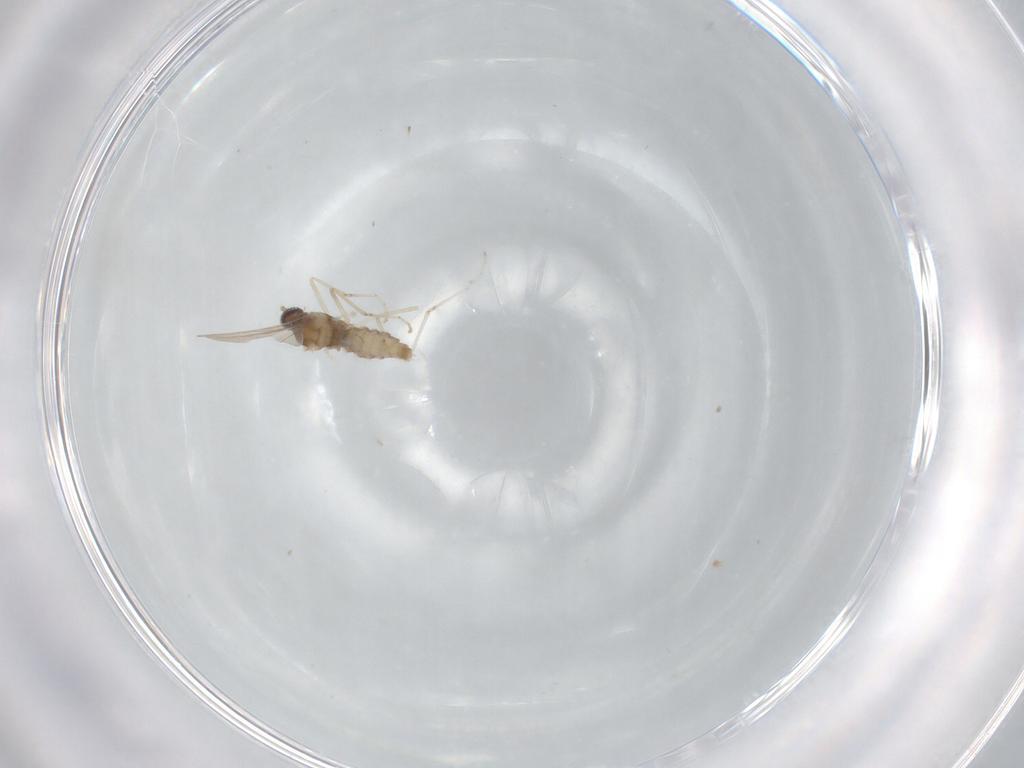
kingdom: Animalia
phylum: Arthropoda
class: Insecta
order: Diptera
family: Cecidomyiidae
